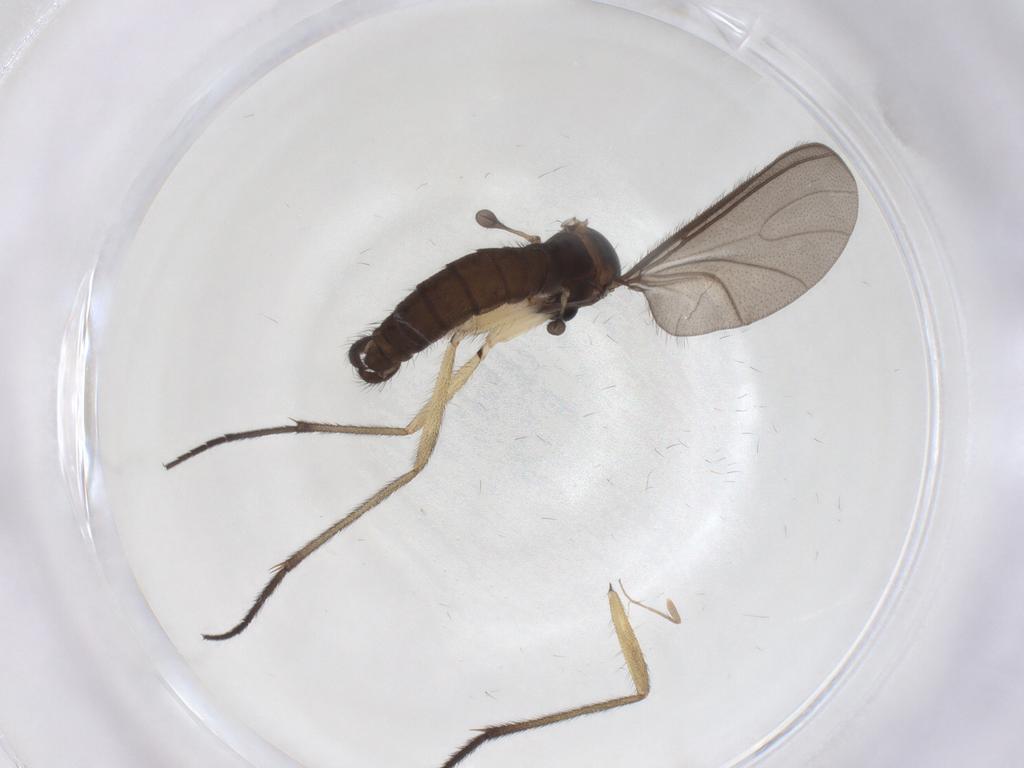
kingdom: Animalia
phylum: Arthropoda
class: Insecta
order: Diptera
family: Sciaridae
